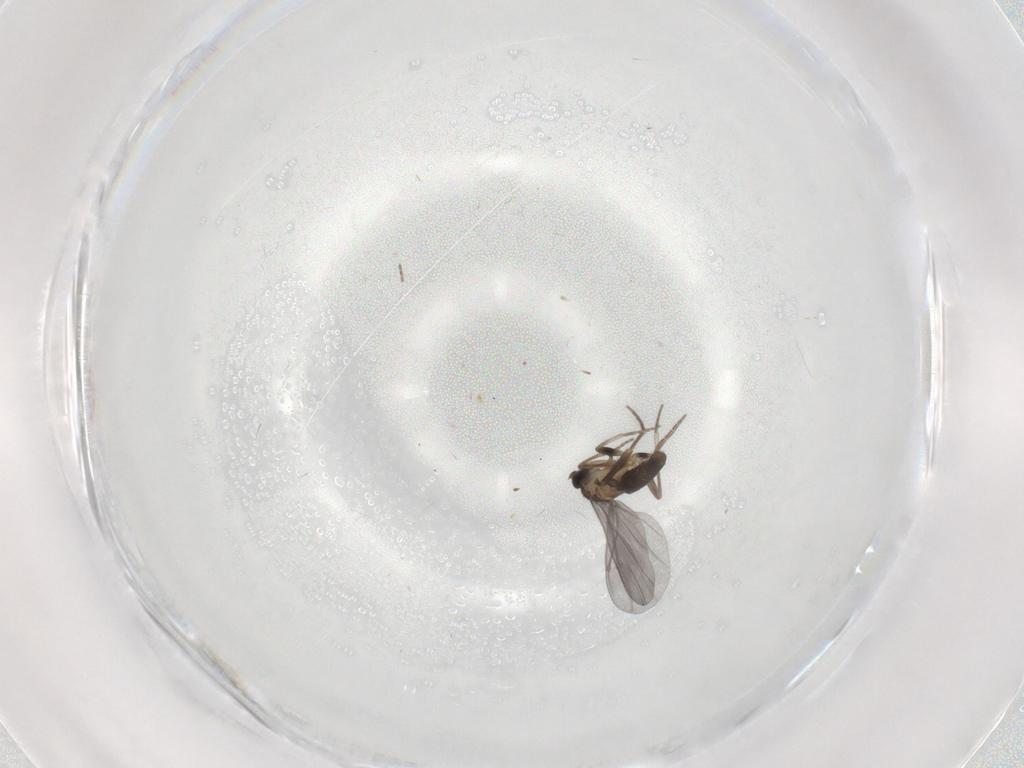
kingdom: Animalia
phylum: Arthropoda
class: Insecta
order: Diptera
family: Phoridae
